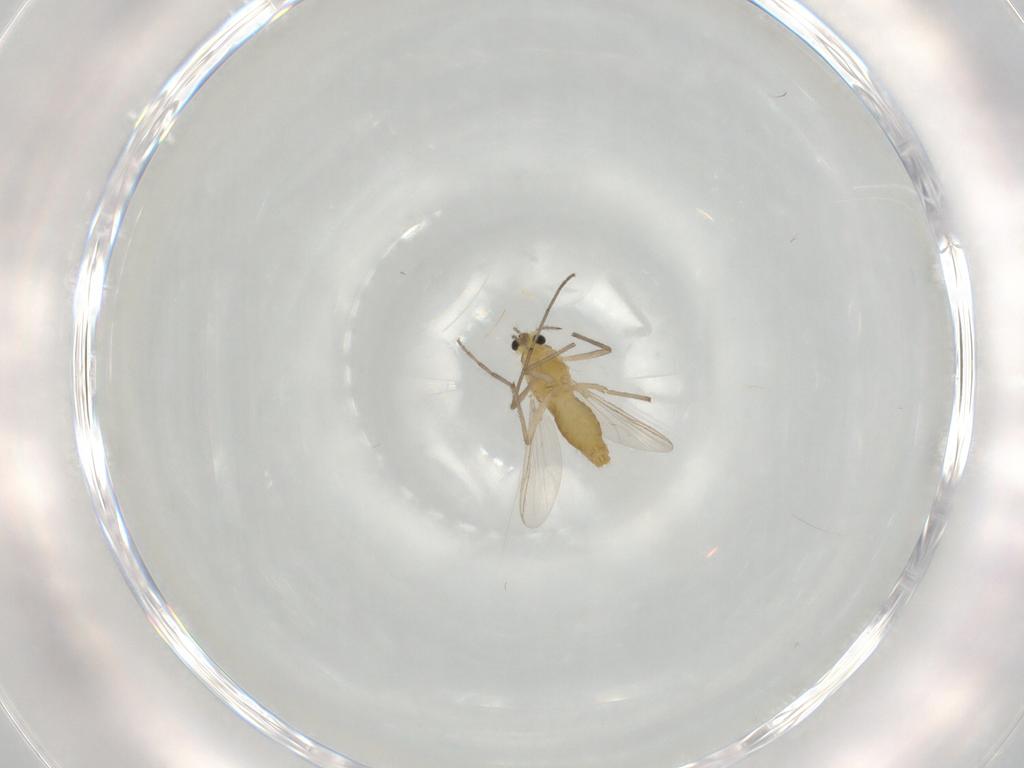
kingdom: Animalia
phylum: Arthropoda
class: Insecta
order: Diptera
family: Chironomidae
